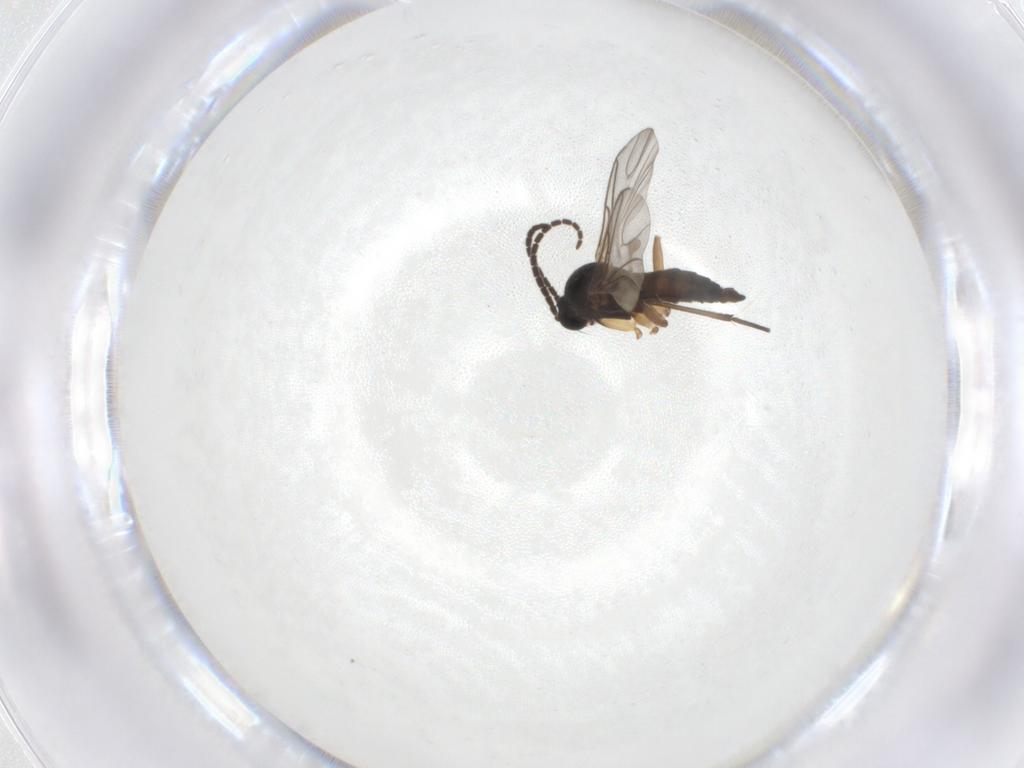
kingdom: Animalia
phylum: Arthropoda
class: Insecta
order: Diptera
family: Sciaridae
